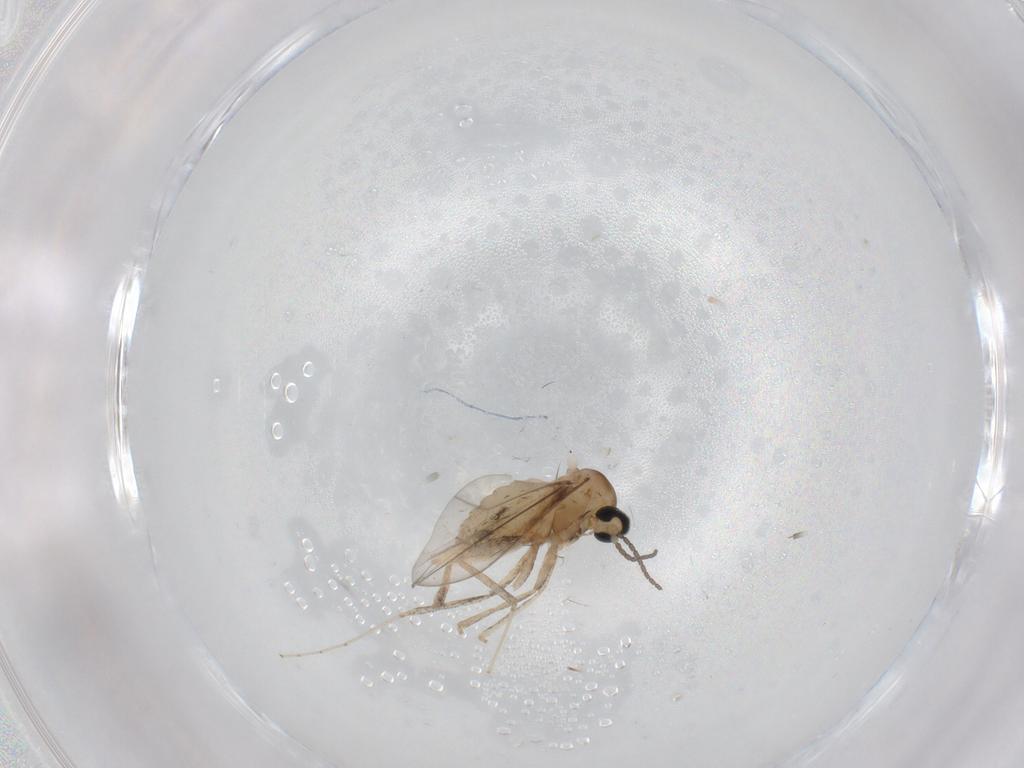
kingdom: Animalia
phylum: Arthropoda
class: Insecta
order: Diptera
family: Cecidomyiidae
